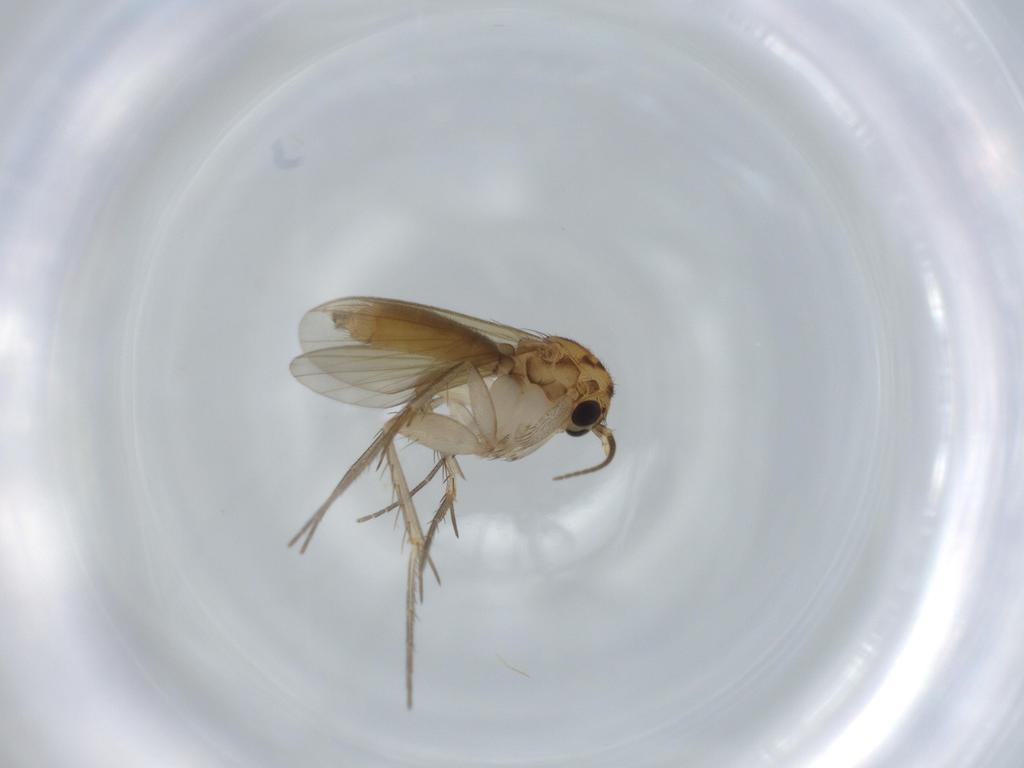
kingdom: Animalia
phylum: Arthropoda
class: Insecta
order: Diptera
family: Mycetophilidae
